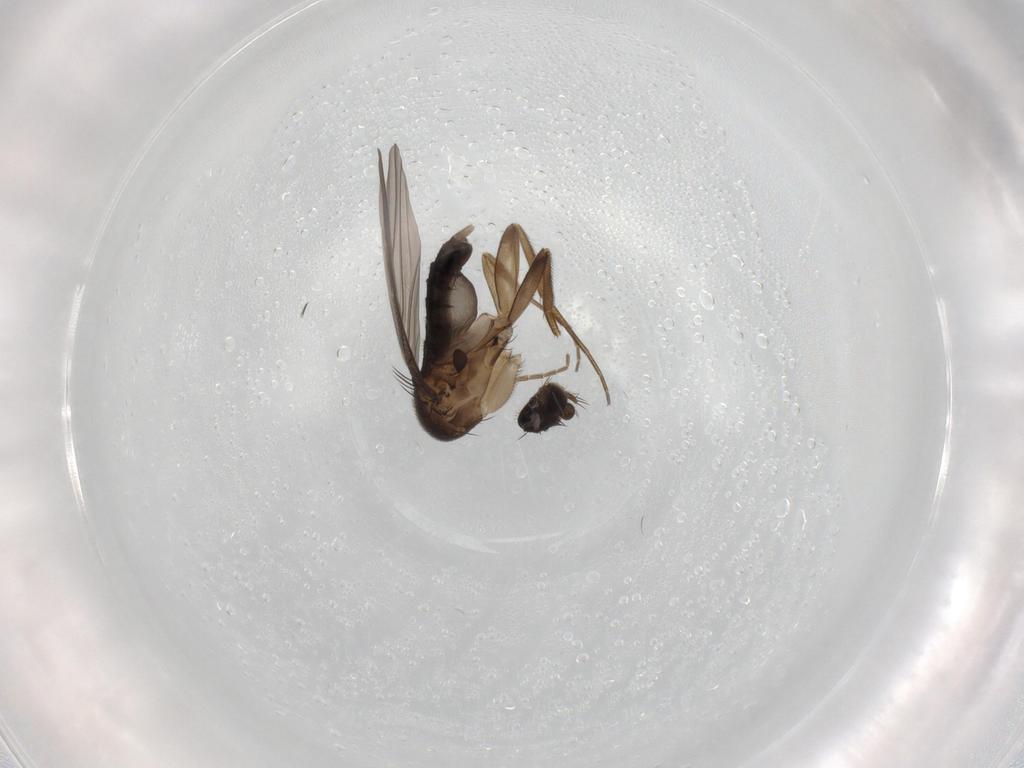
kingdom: Animalia
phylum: Arthropoda
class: Insecta
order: Diptera
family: Phoridae
